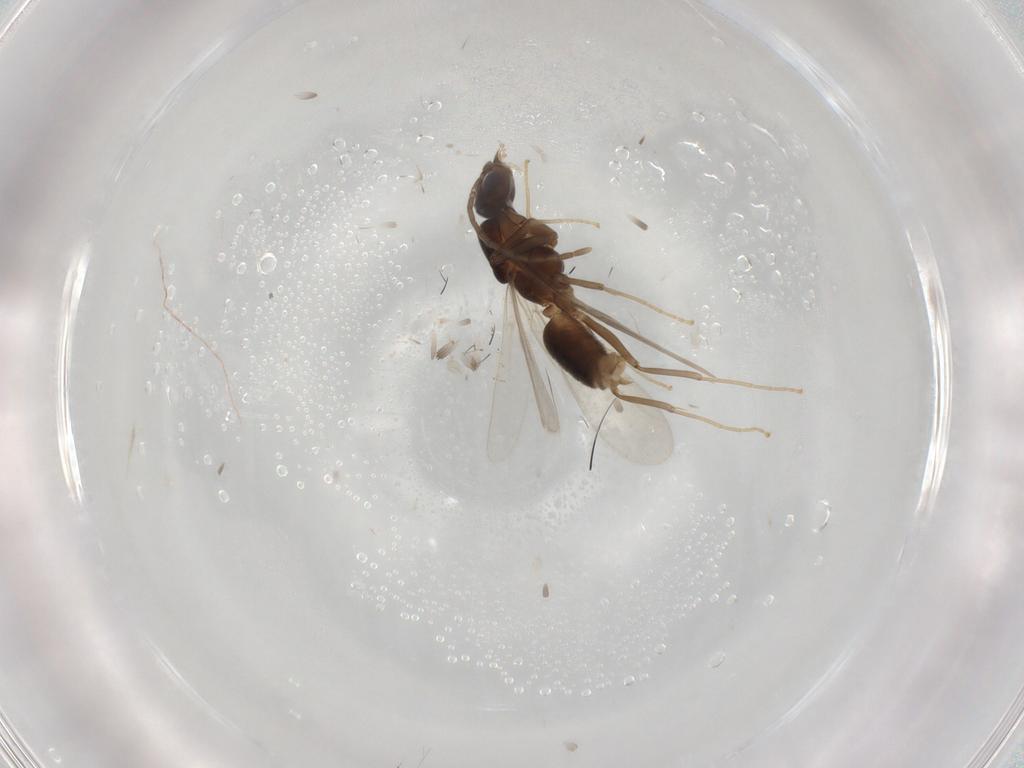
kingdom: Animalia
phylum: Arthropoda
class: Insecta
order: Hymenoptera
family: Formicidae
